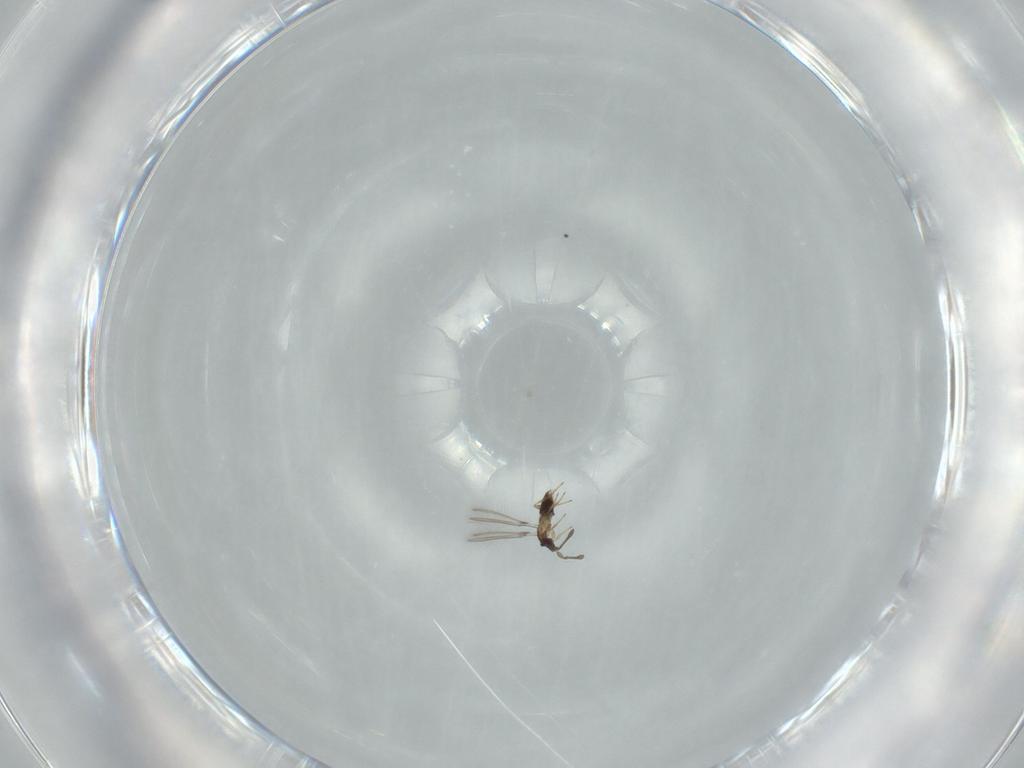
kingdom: Animalia
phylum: Arthropoda
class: Insecta
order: Hymenoptera
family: Mymaridae
